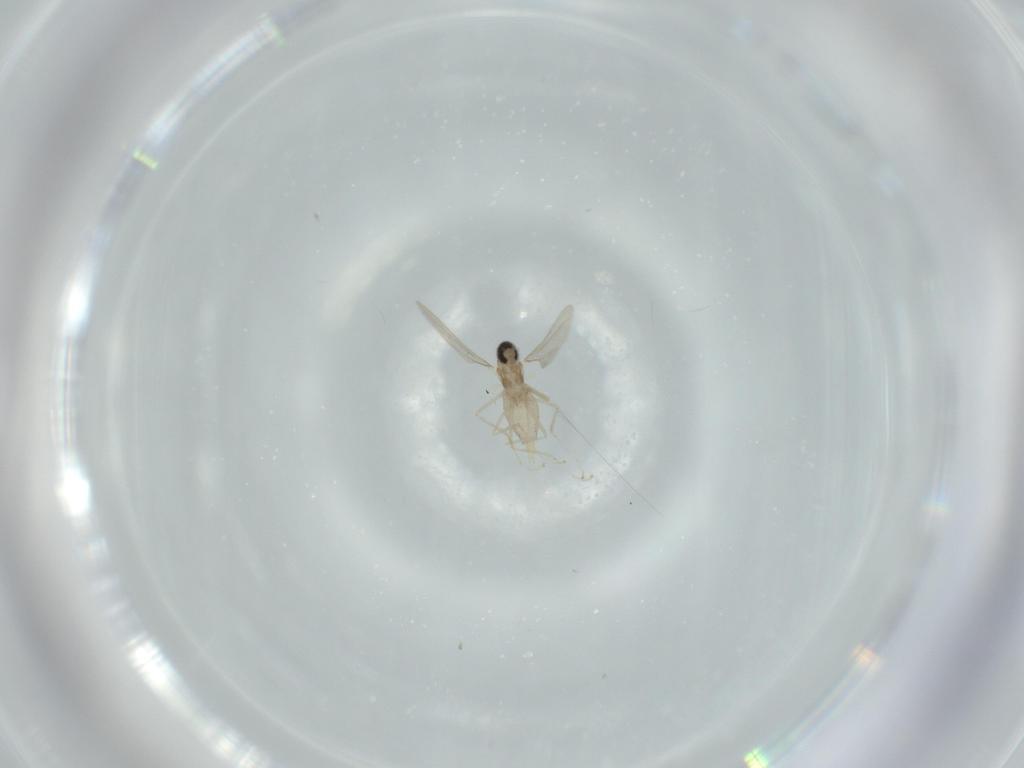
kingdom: Animalia
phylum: Arthropoda
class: Insecta
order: Diptera
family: Cecidomyiidae
